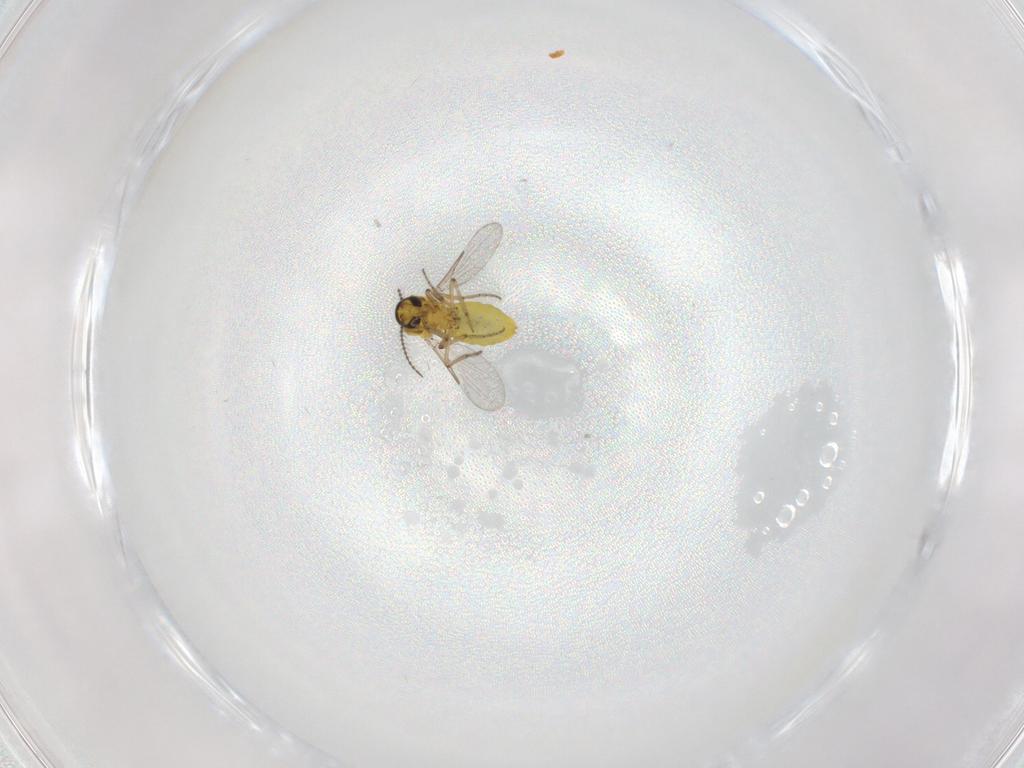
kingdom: Animalia
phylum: Arthropoda
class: Insecta
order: Diptera
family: Ceratopogonidae
